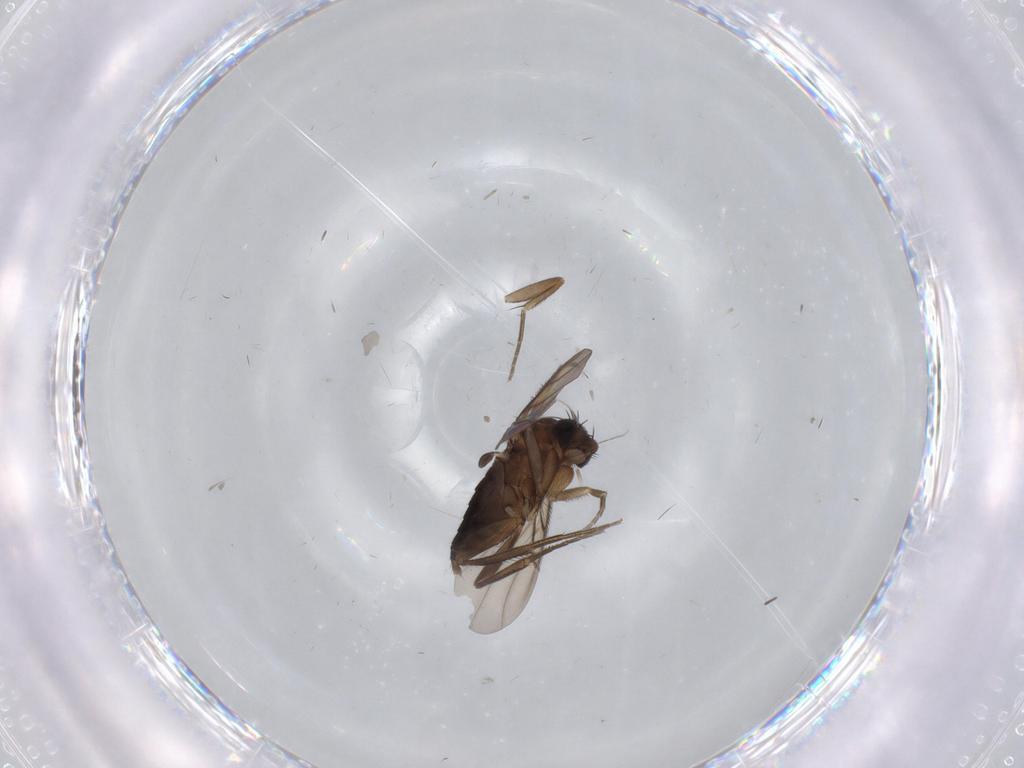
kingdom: Animalia
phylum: Arthropoda
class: Insecta
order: Diptera
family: Phoridae
